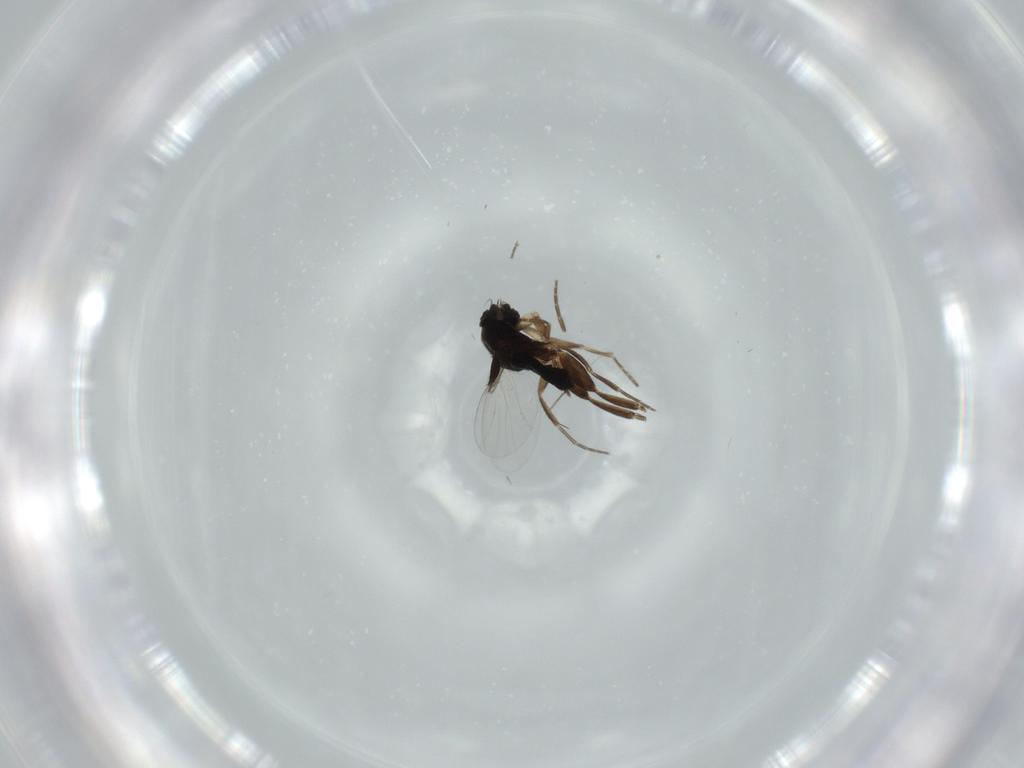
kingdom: Animalia
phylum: Arthropoda
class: Insecta
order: Diptera
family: Phoridae
